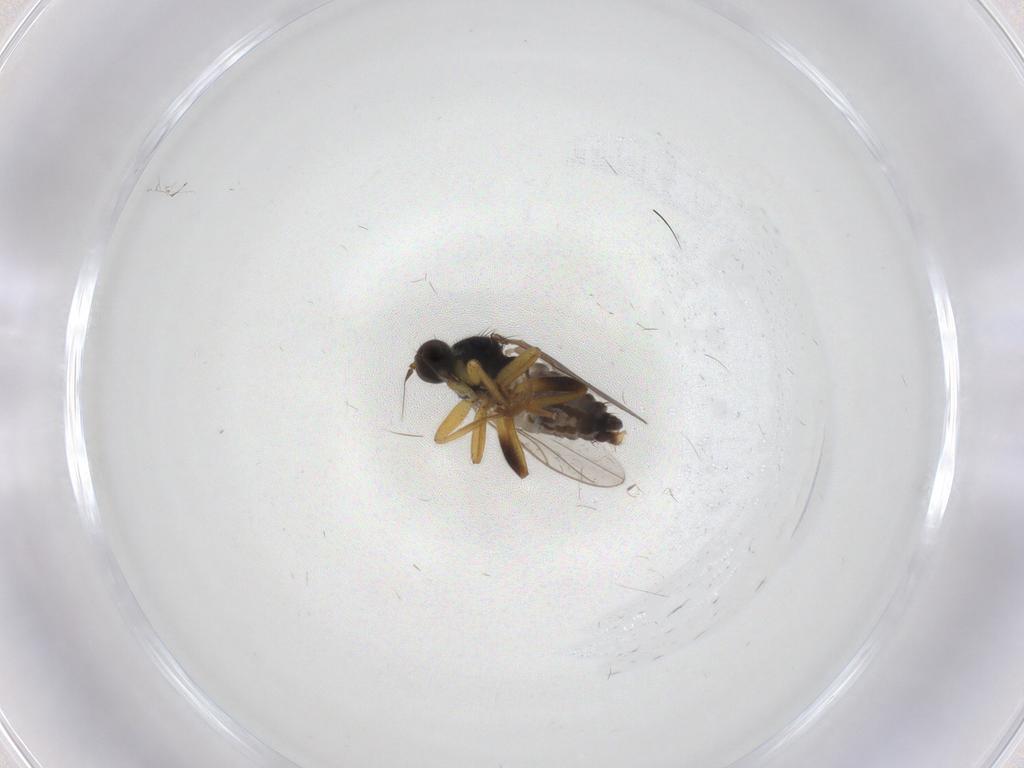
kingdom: Animalia
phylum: Arthropoda
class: Insecta
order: Diptera
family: Hybotidae
